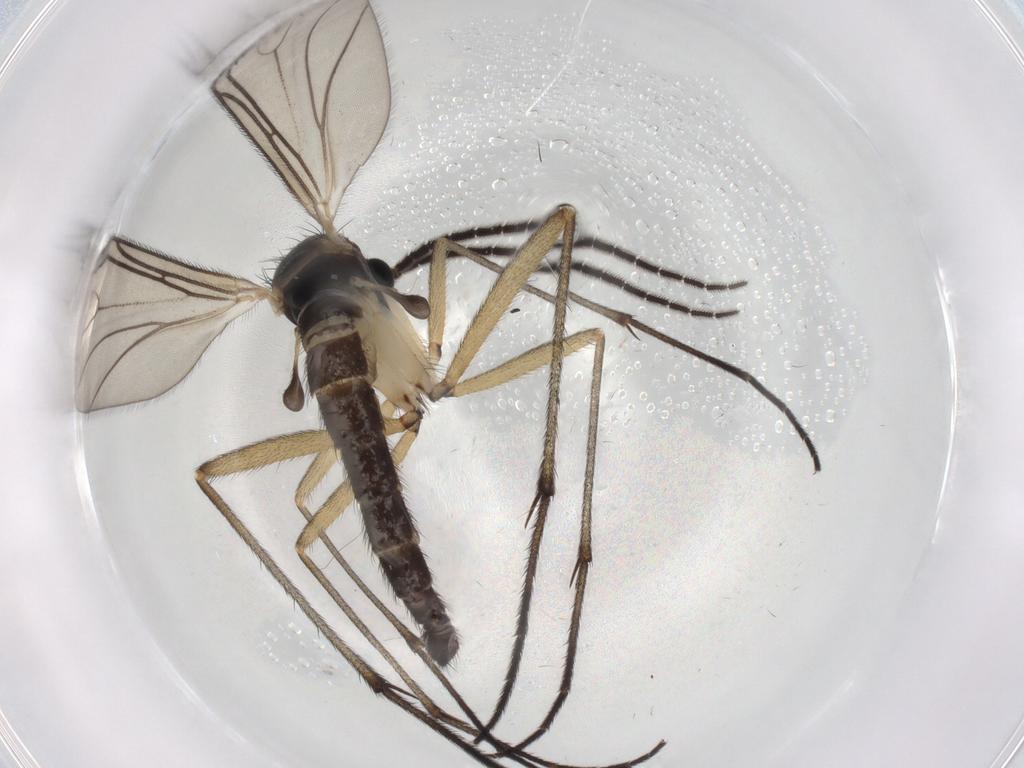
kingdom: Animalia
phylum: Arthropoda
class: Insecta
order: Diptera
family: Sciaridae
